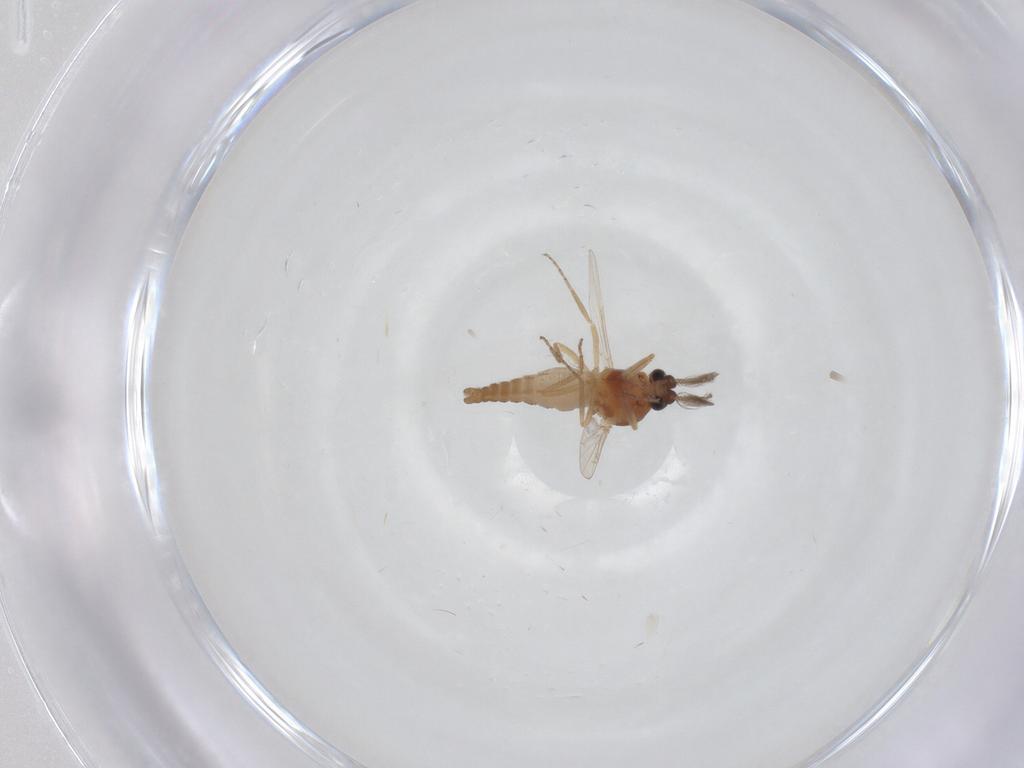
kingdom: Animalia
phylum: Arthropoda
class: Insecta
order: Diptera
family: Ceratopogonidae
